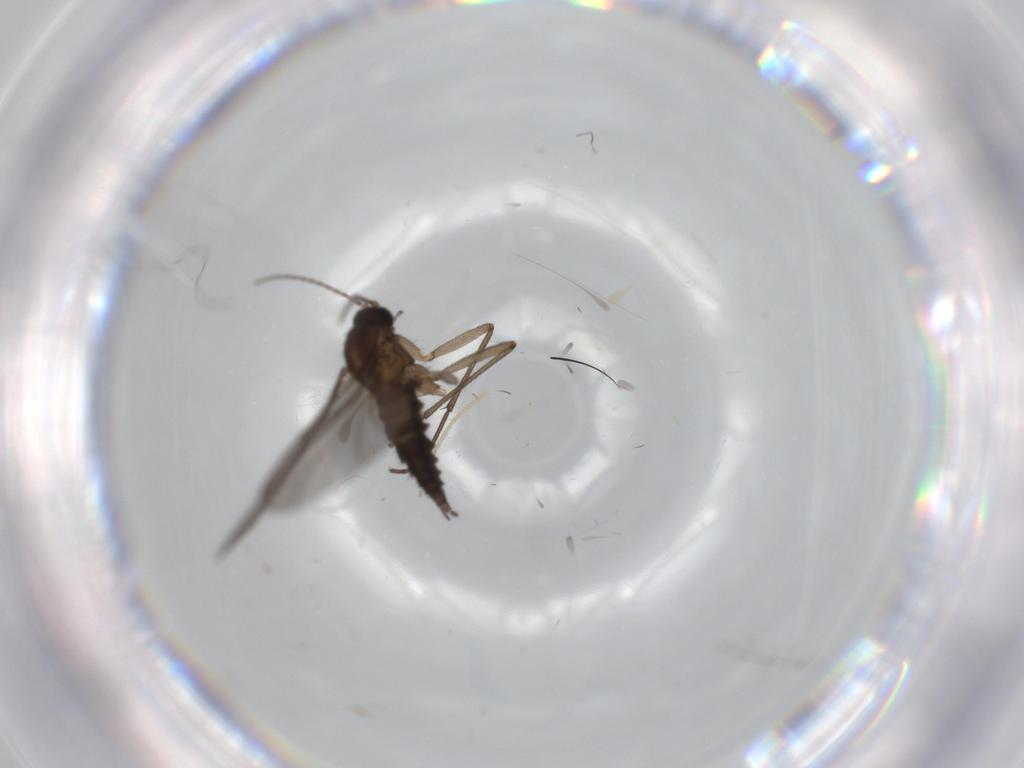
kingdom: Animalia
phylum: Arthropoda
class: Insecta
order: Diptera
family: Sciaridae
